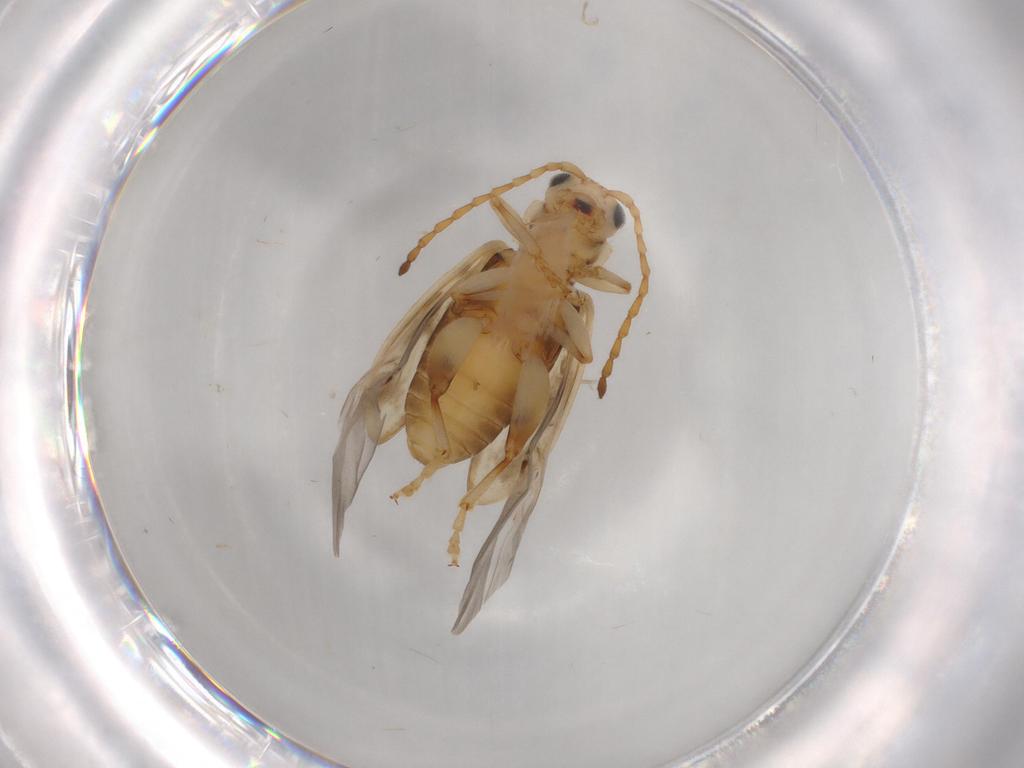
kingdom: Animalia
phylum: Arthropoda
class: Insecta
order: Coleoptera
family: Chrysomelidae
